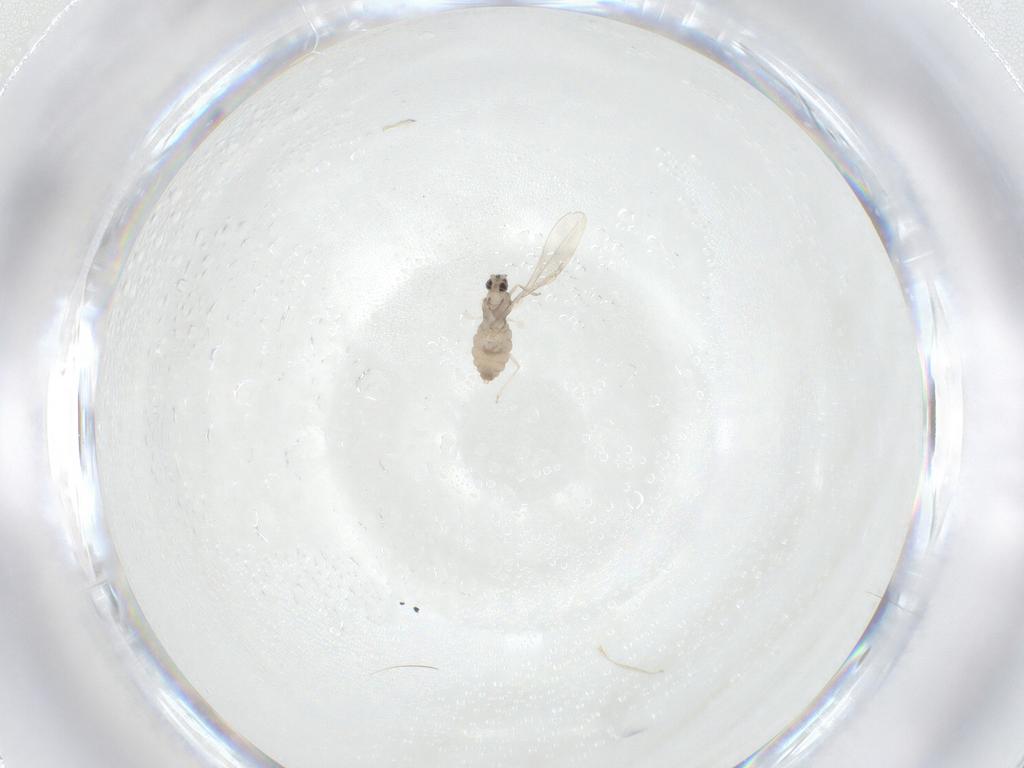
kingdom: Animalia
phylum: Arthropoda
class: Insecta
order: Diptera
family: Cecidomyiidae
